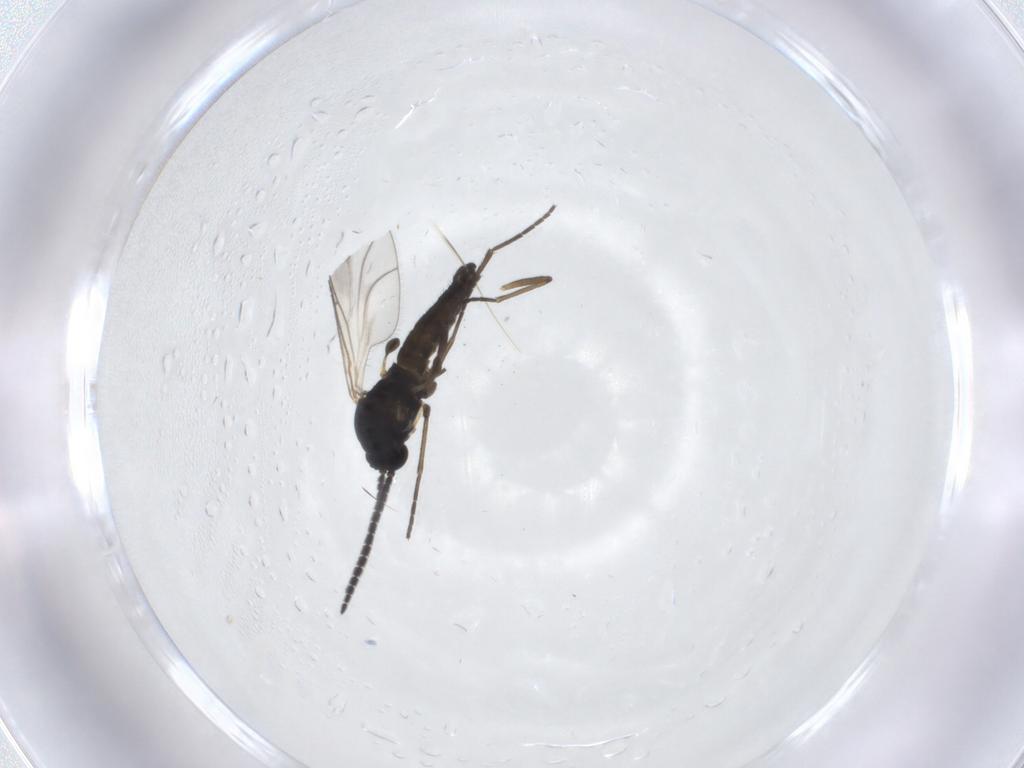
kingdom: Animalia
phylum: Arthropoda
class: Insecta
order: Diptera
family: Sciaridae
